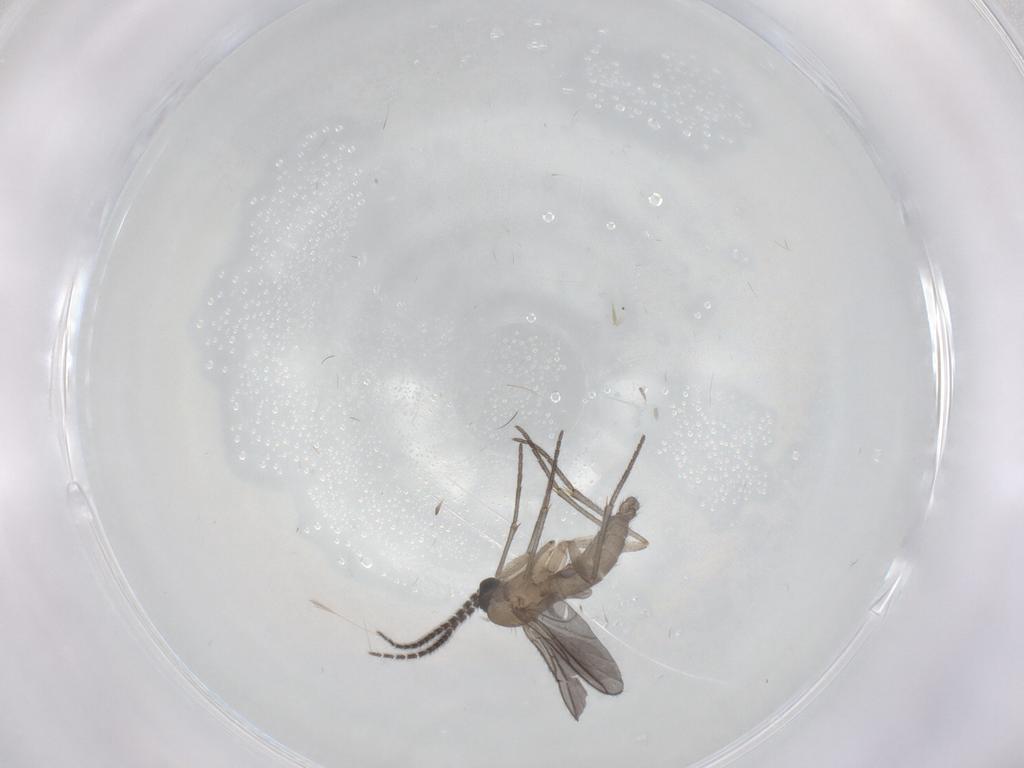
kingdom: Animalia
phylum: Arthropoda
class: Insecta
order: Diptera
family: Sciaridae
